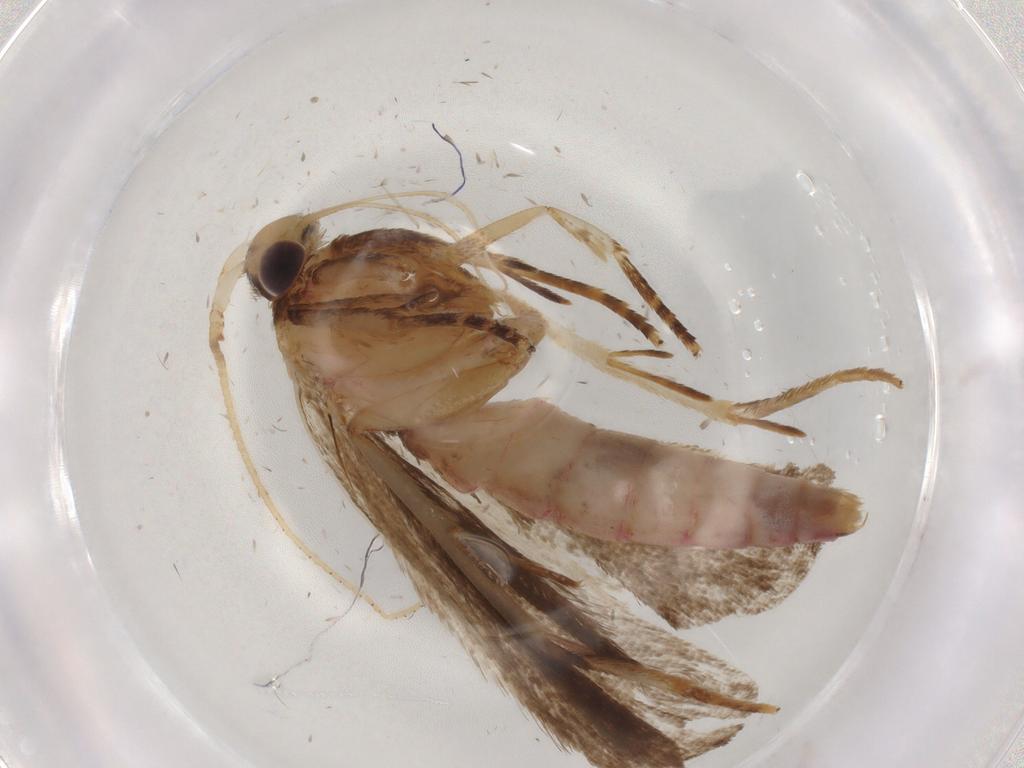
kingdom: Animalia
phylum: Arthropoda
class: Insecta
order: Lepidoptera
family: Autostichidae
